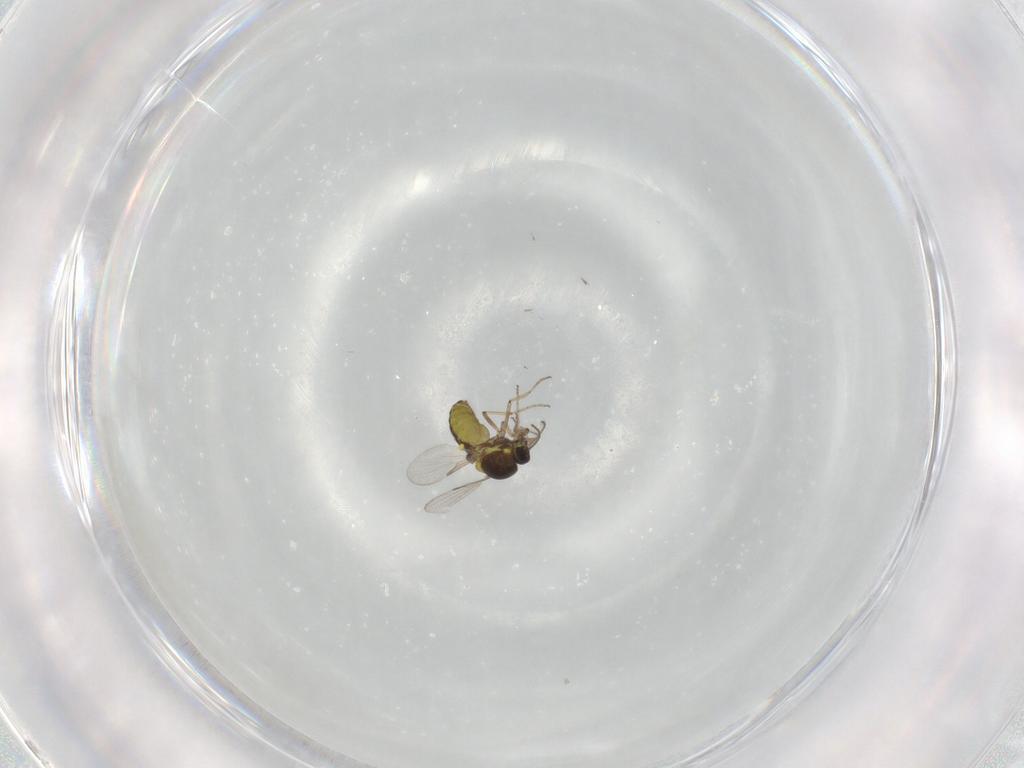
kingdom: Animalia
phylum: Arthropoda
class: Insecta
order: Diptera
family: Ceratopogonidae
